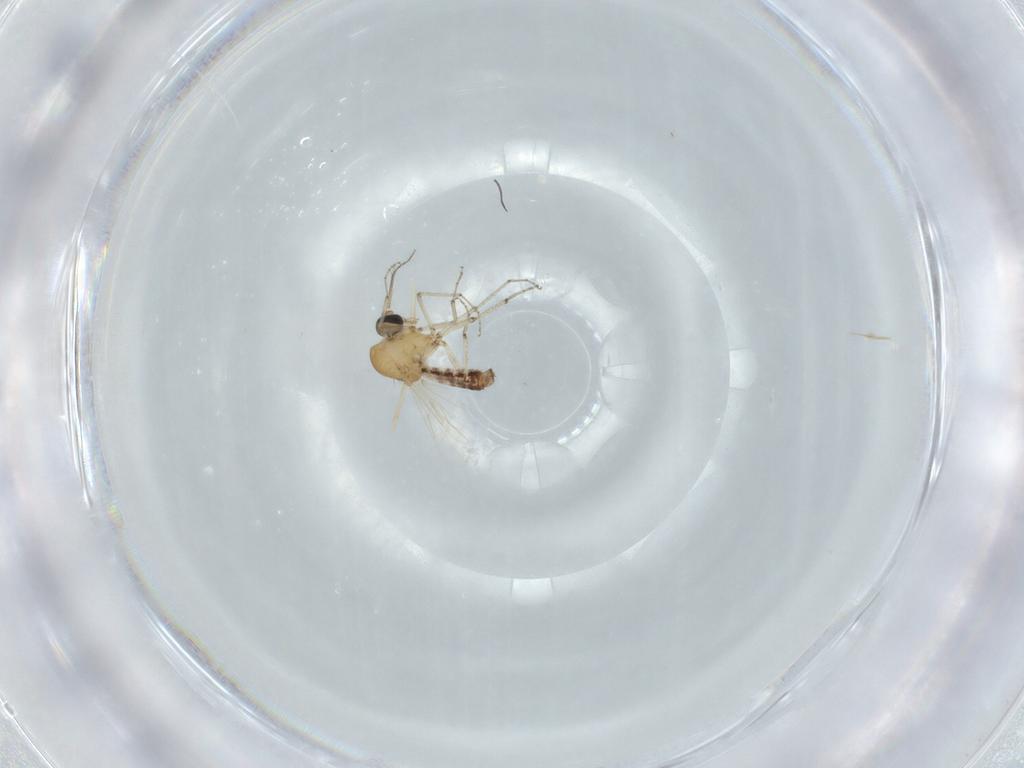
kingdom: Animalia
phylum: Arthropoda
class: Insecta
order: Diptera
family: Ceratopogonidae
